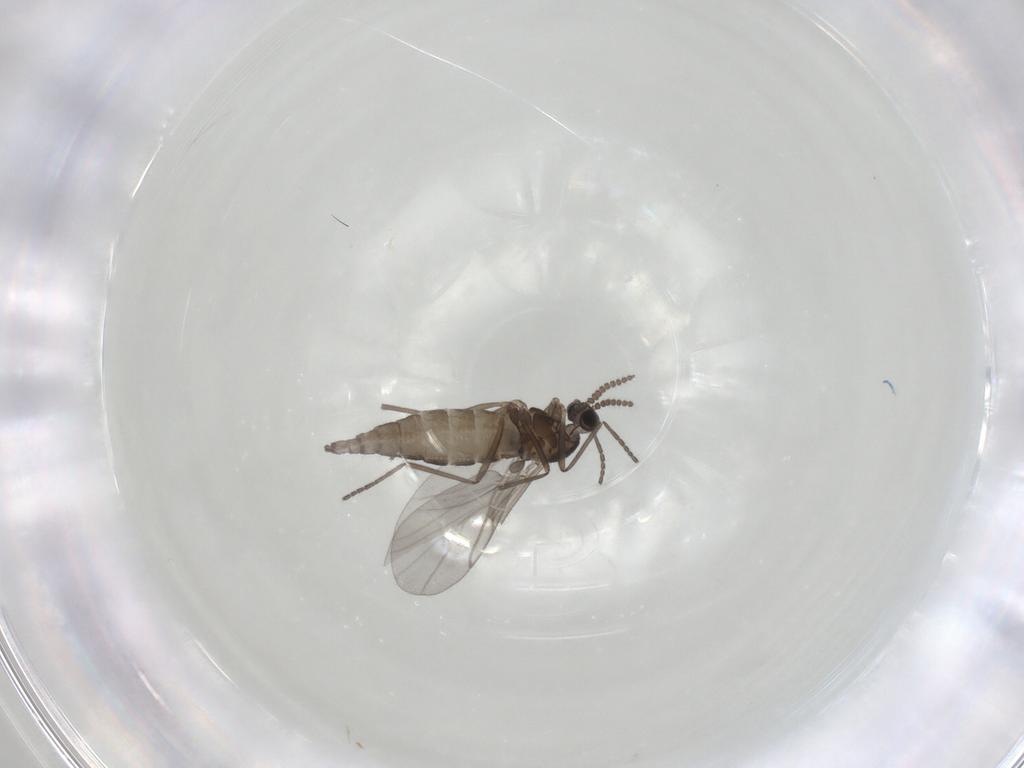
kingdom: Animalia
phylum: Arthropoda
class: Insecta
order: Diptera
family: Cecidomyiidae
